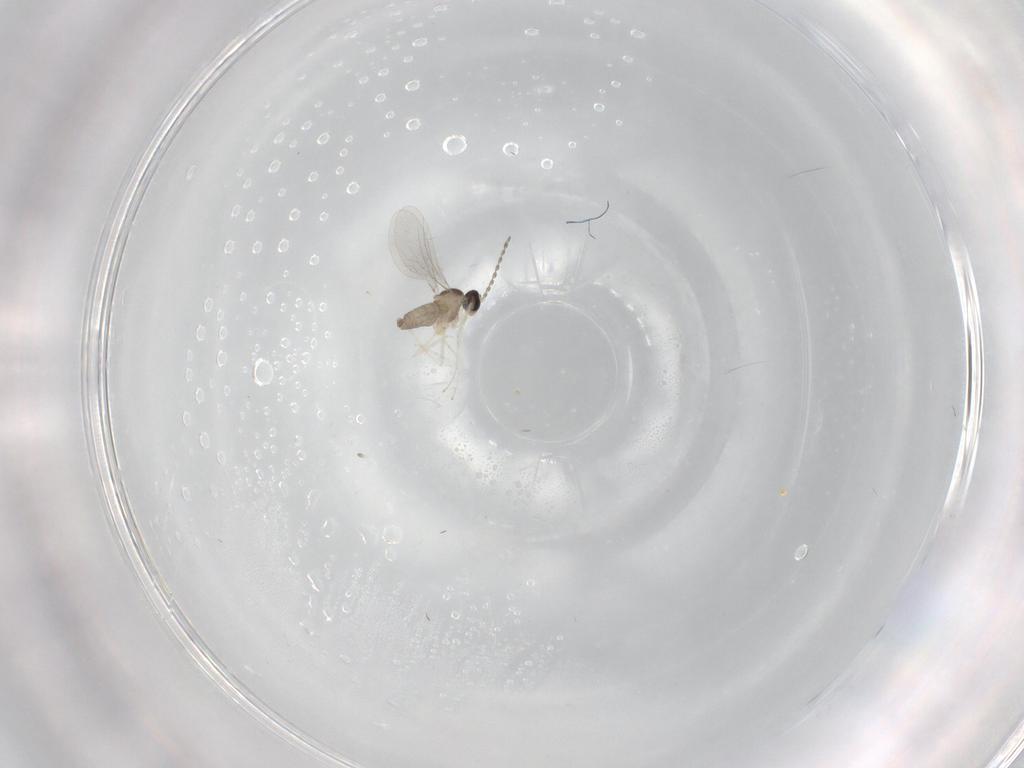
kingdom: Animalia
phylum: Arthropoda
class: Insecta
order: Diptera
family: Cecidomyiidae
